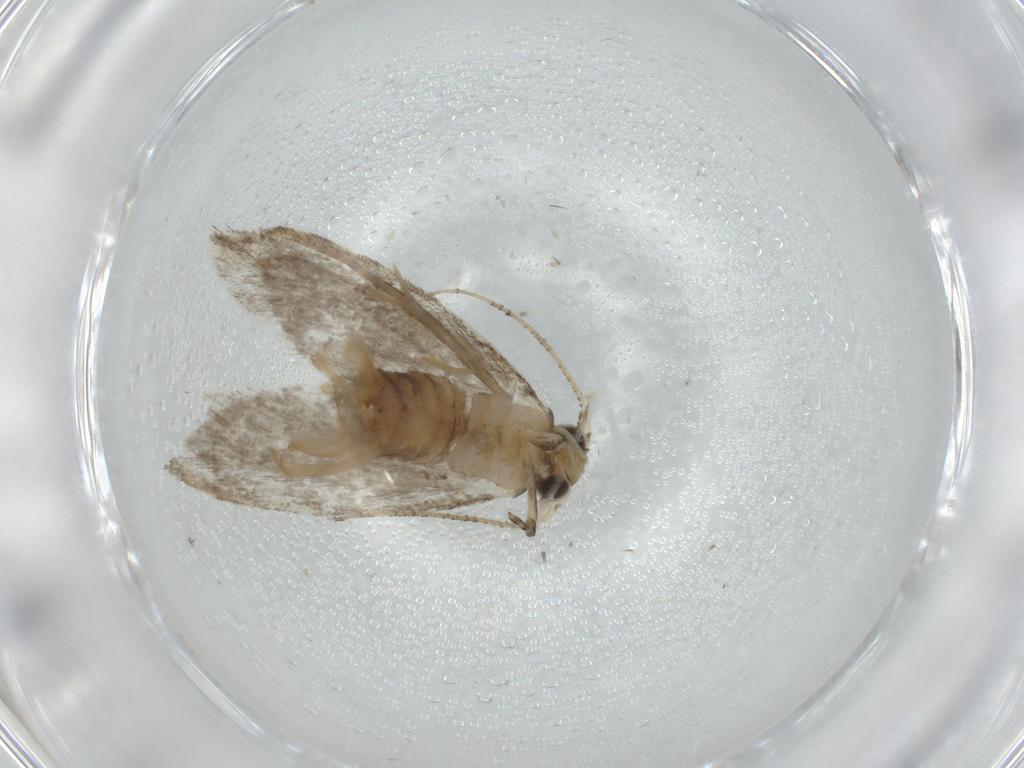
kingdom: Animalia
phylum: Arthropoda
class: Insecta
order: Lepidoptera
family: Tineidae
